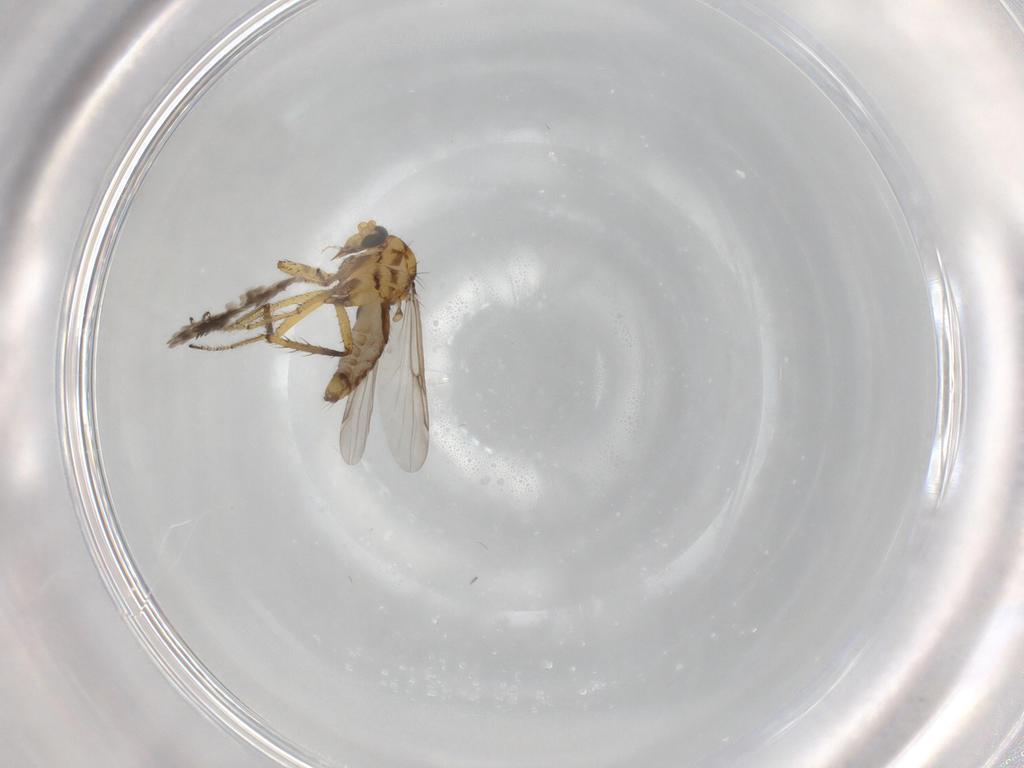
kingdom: Animalia
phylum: Arthropoda
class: Insecta
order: Diptera
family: Ceratopogonidae
